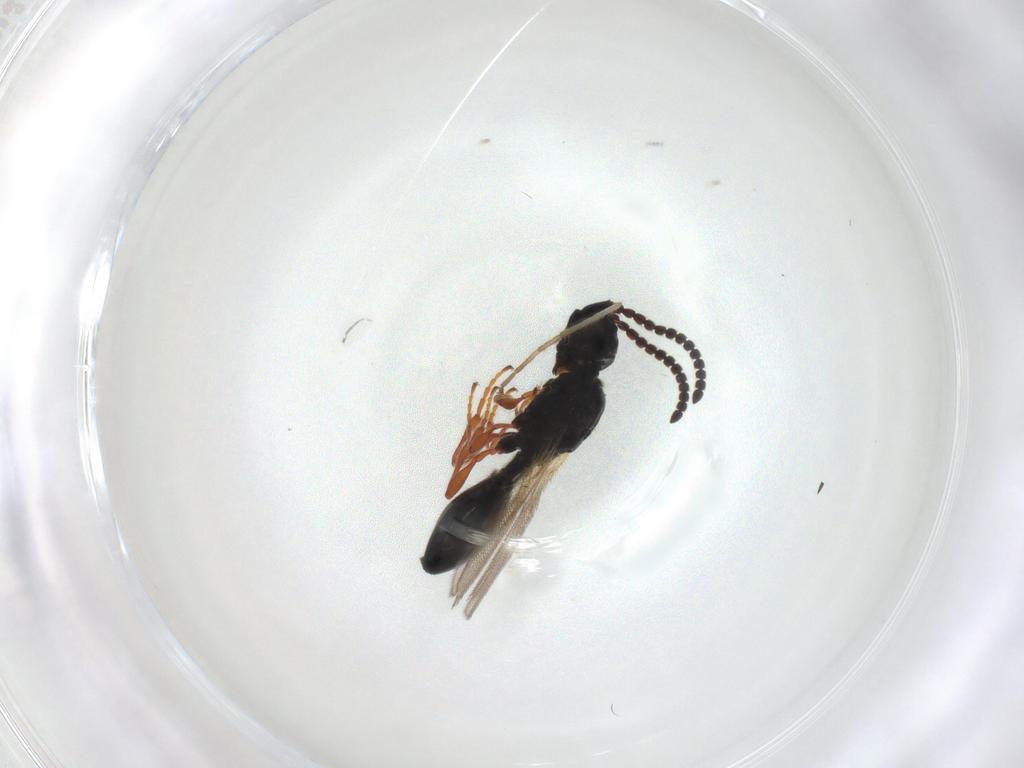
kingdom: Animalia
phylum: Arthropoda
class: Insecta
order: Hymenoptera
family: Diapriidae
